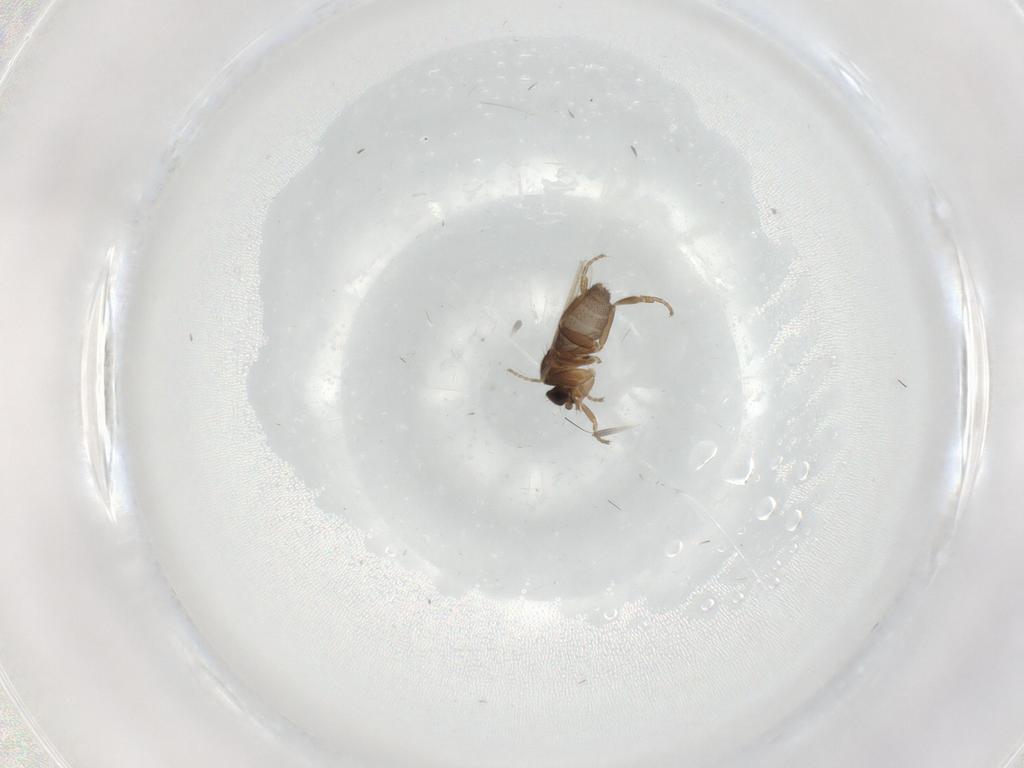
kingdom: Animalia
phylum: Arthropoda
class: Insecta
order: Diptera
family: Phoridae
